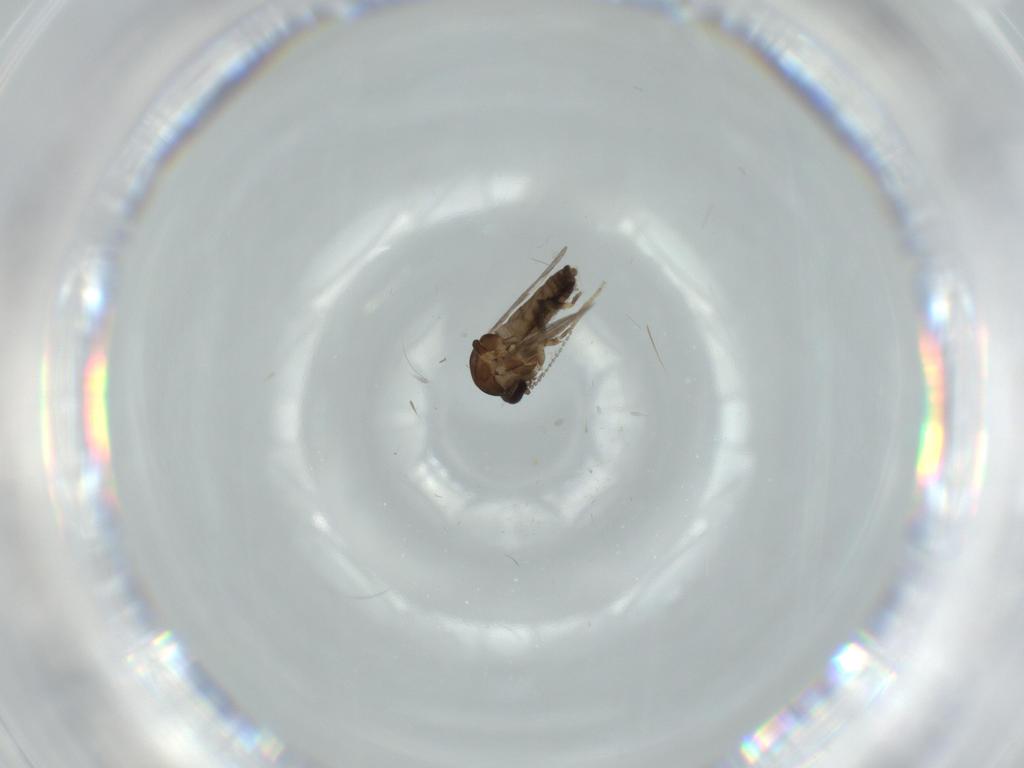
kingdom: Animalia
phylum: Arthropoda
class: Insecta
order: Diptera
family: Ceratopogonidae
